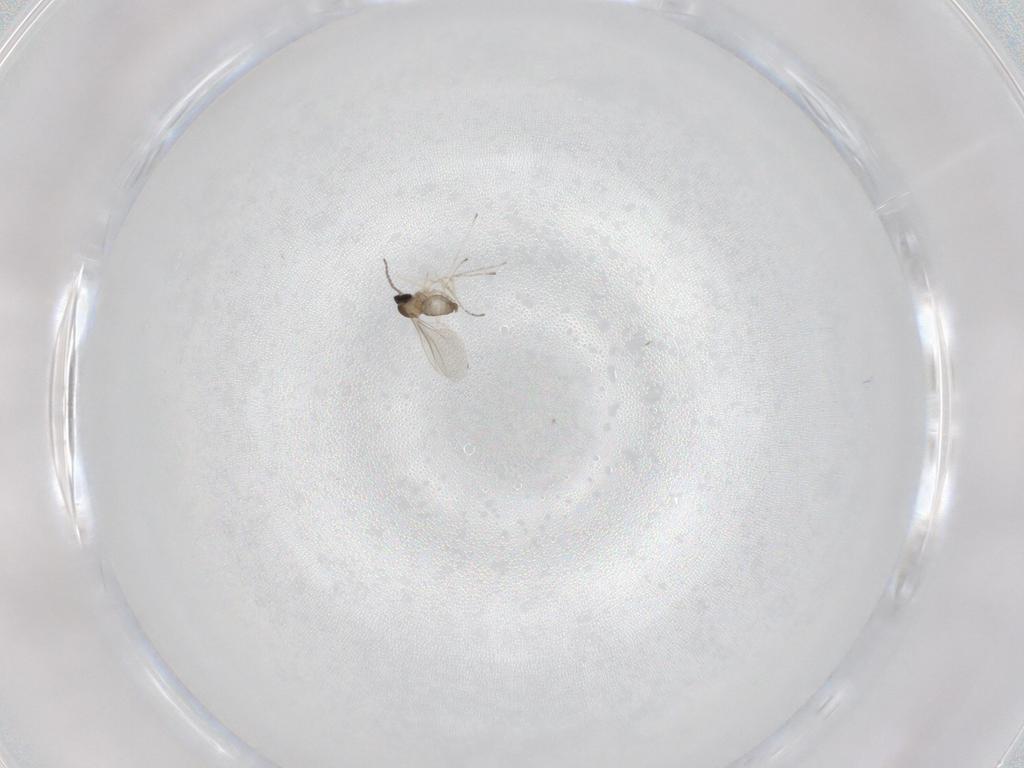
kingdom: Animalia
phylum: Arthropoda
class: Insecta
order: Diptera
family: Cecidomyiidae
